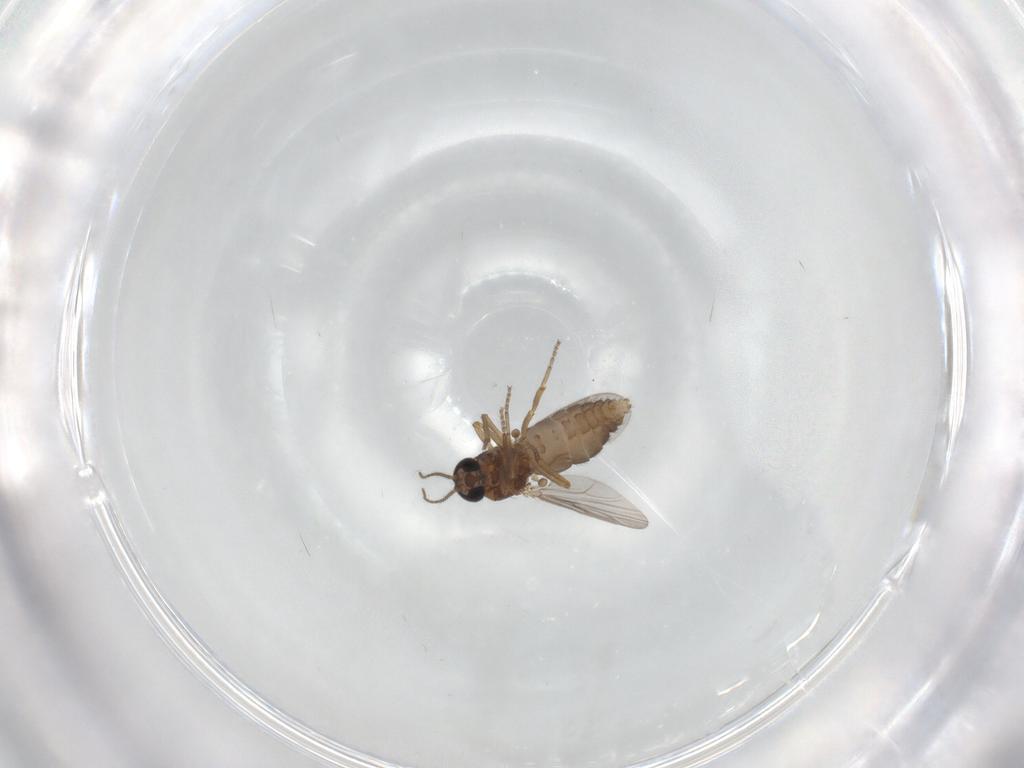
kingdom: Animalia
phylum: Arthropoda
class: Insecta
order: Diptera
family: Ceratopogonidae
